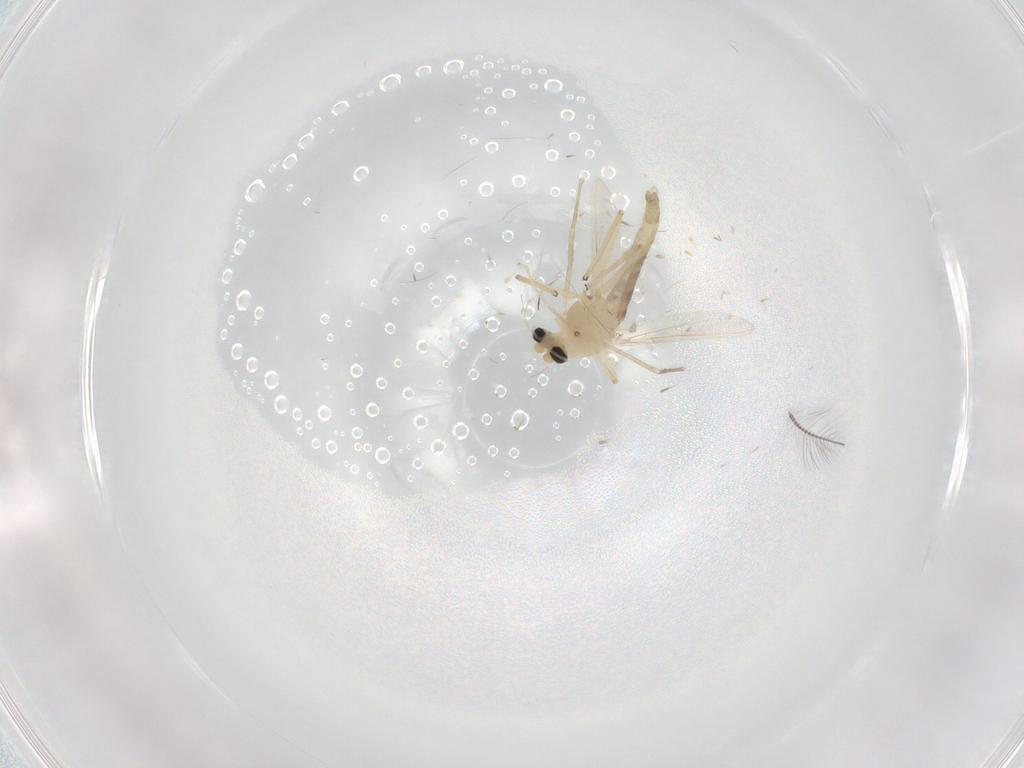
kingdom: Animalia
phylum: Arthropoda
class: Insecta
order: Diptera
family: Chironomidae
